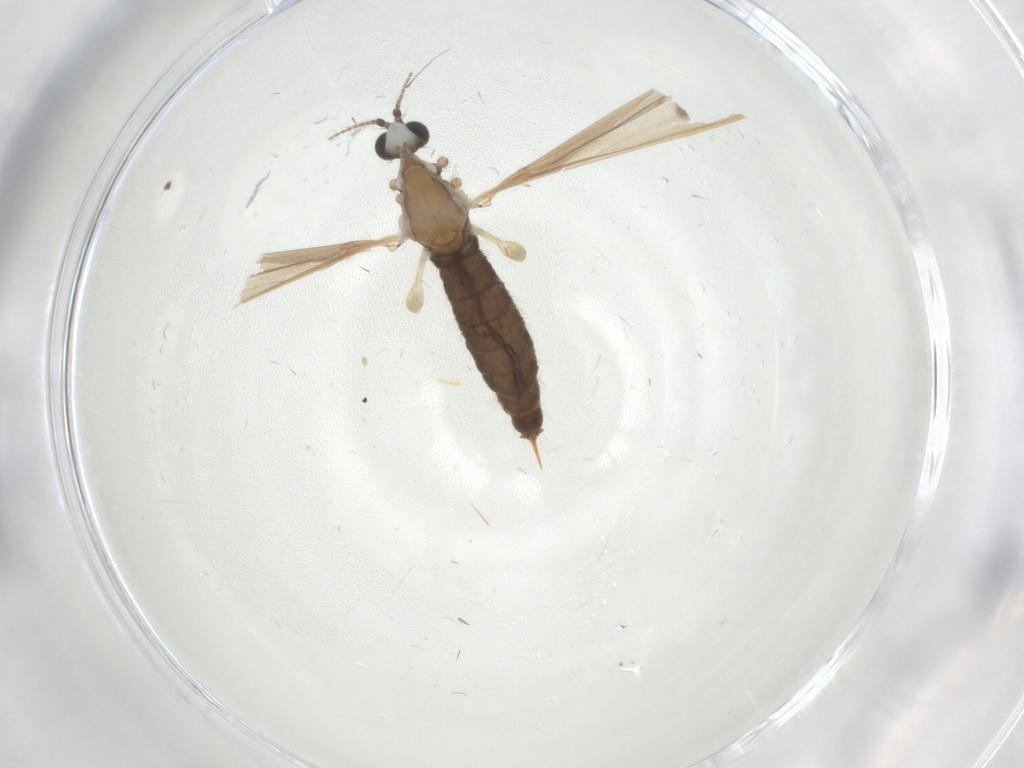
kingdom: Animalia
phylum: Arthropoda
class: Insecta
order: Diptera
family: Limoniidae
